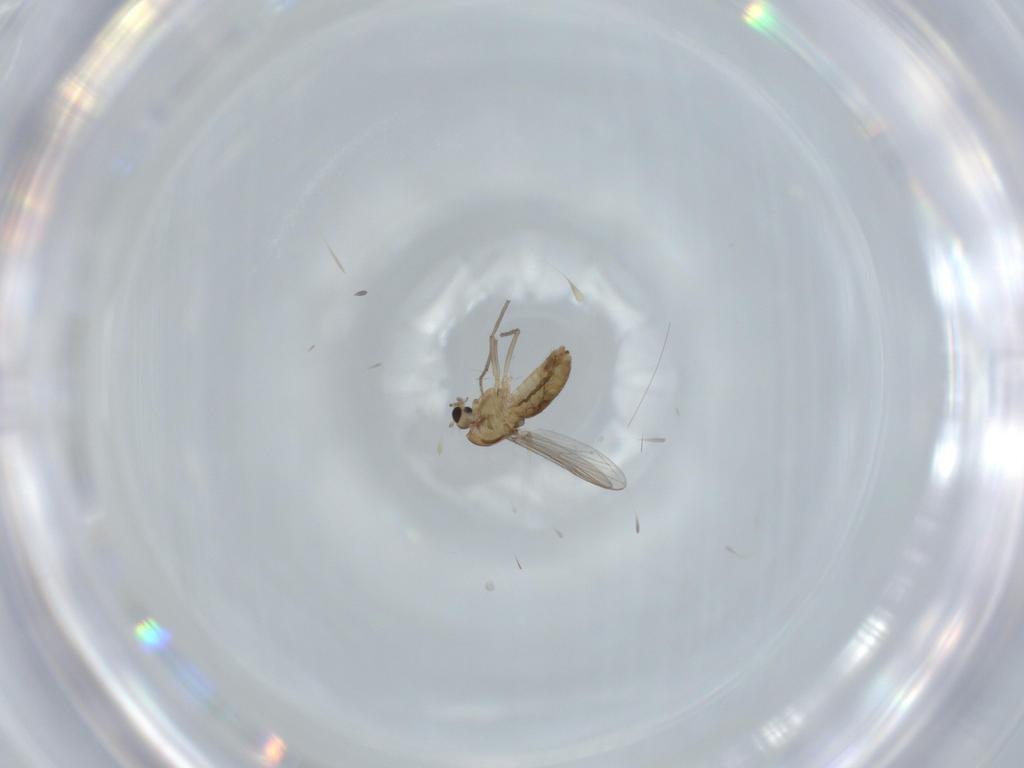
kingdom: Animalia
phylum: Arthropoda
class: Insecta
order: Diptera
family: Chironomidae
